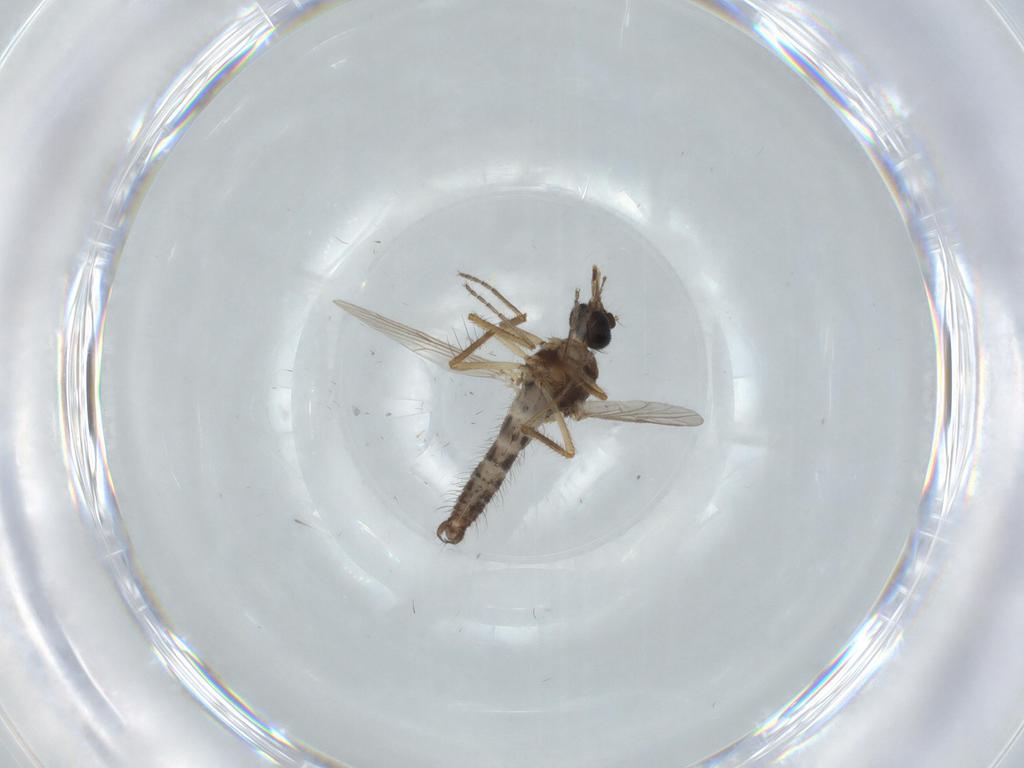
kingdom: Animalia
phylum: Arthropoda
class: Insecta
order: Diptera
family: Ceratopogonidae
